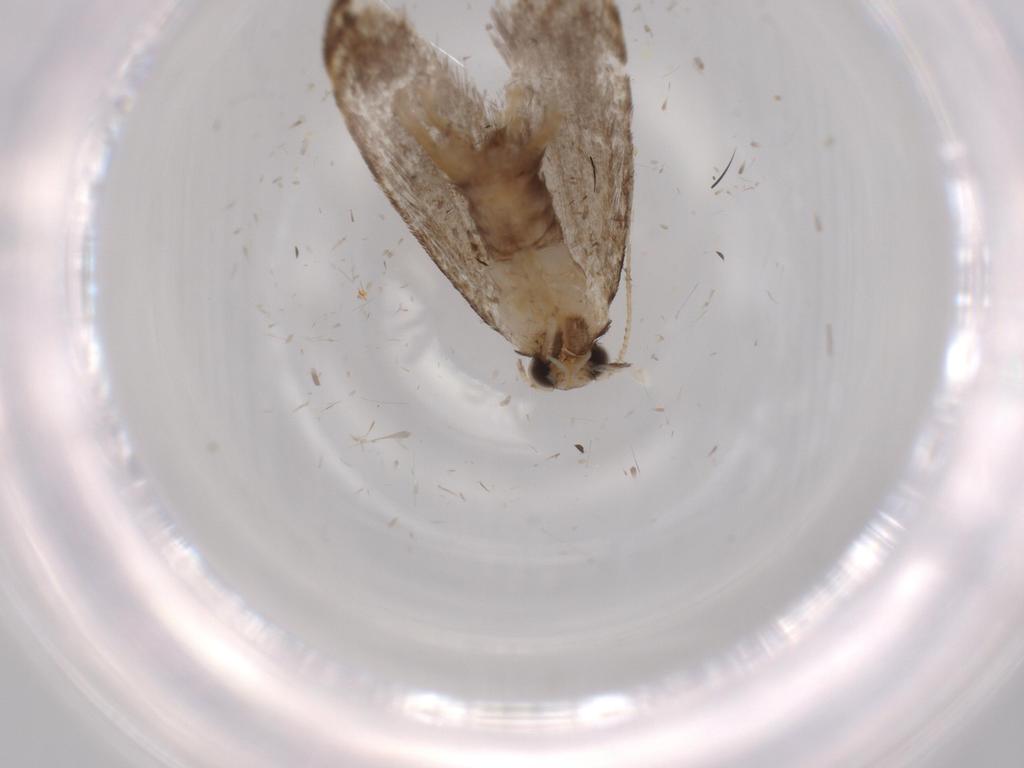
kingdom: Animalia
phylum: Arthropoda
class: Insecta
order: Lepidoptera
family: Tineidae
